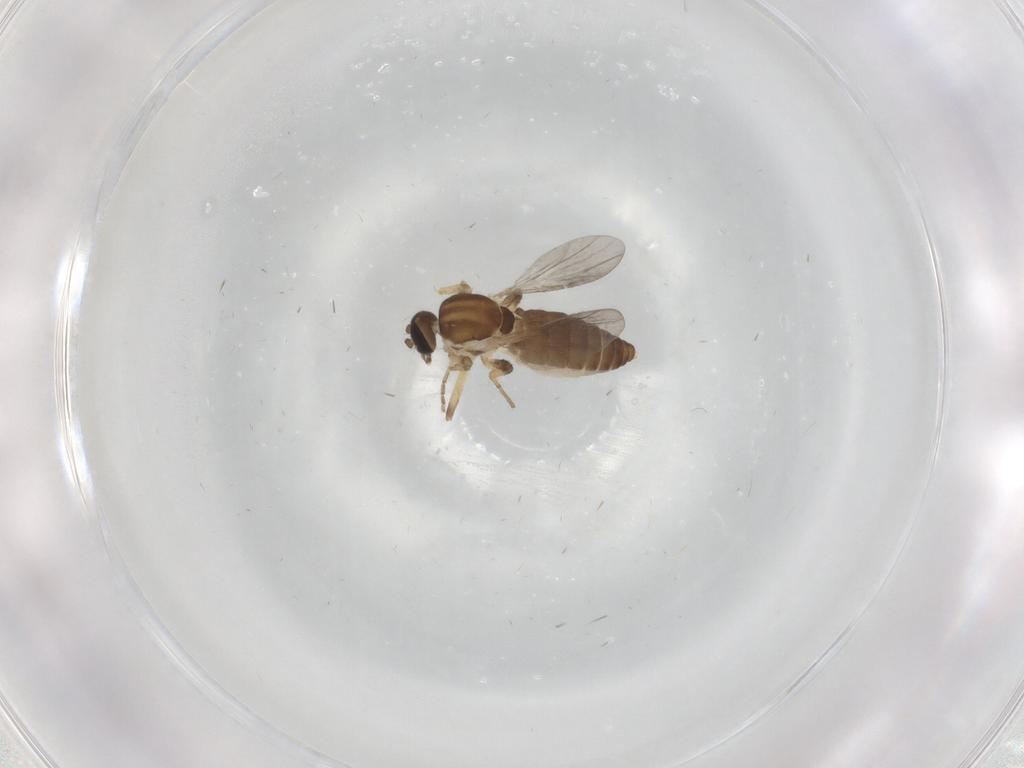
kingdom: Animalia
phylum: Arthropoda
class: Insecta
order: Diptera
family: Ceratopogonidae
